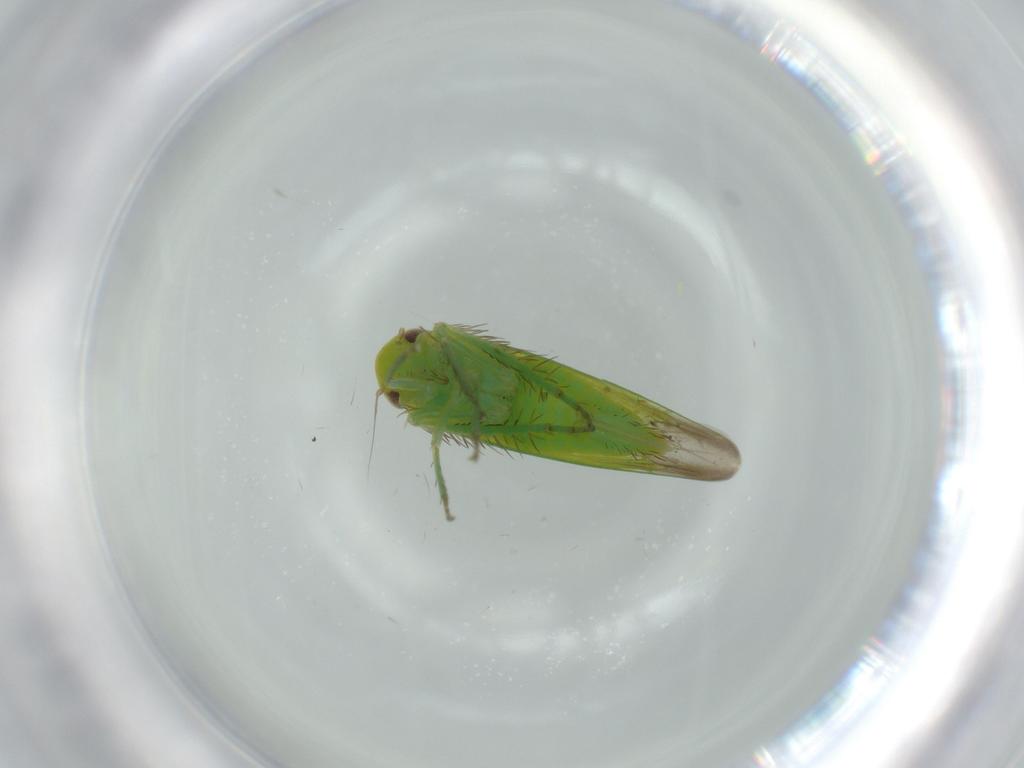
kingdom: Animalia
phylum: Arthropoda
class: Insecta
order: Hemiptera
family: Cicadellidae
